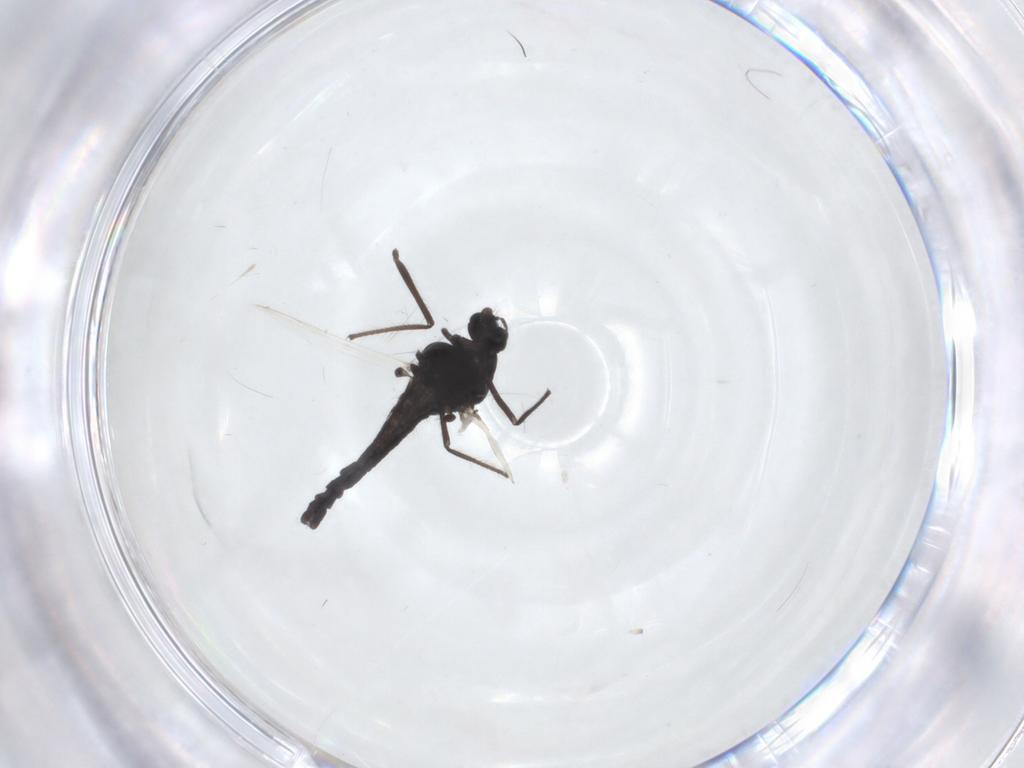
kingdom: Animalia
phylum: Arthropoda
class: Insecta
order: Diptera
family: Chironomidae
